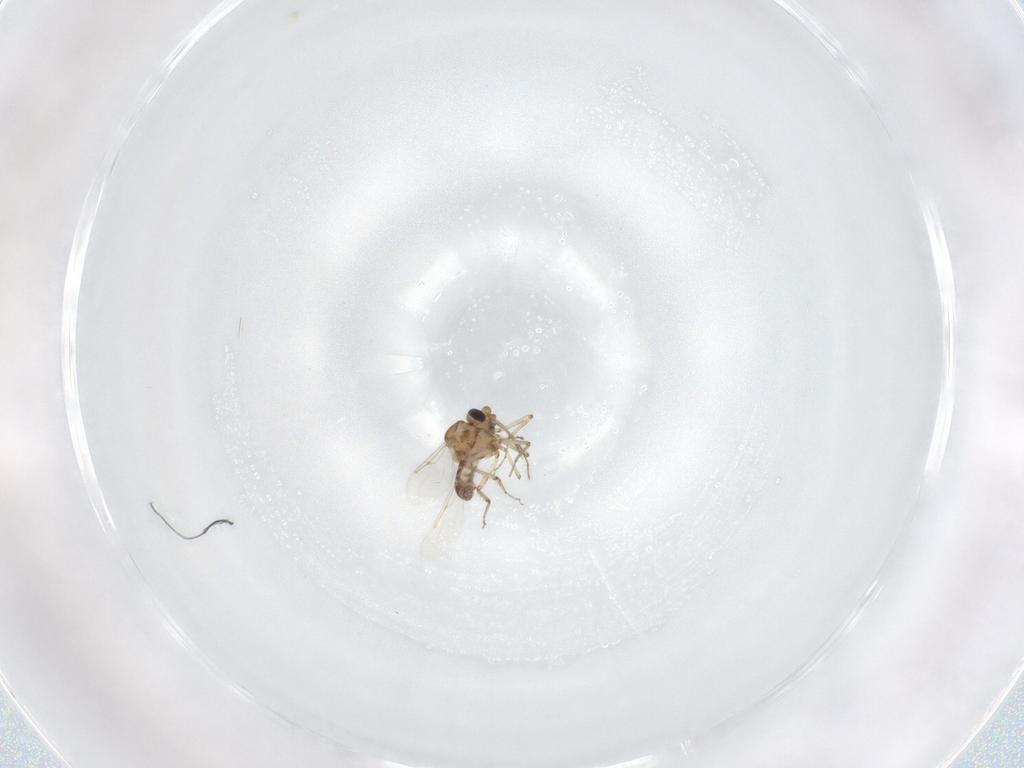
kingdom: Animalia
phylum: Arthropoda
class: Insecta
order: Diptera
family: Ceratopogonidae
